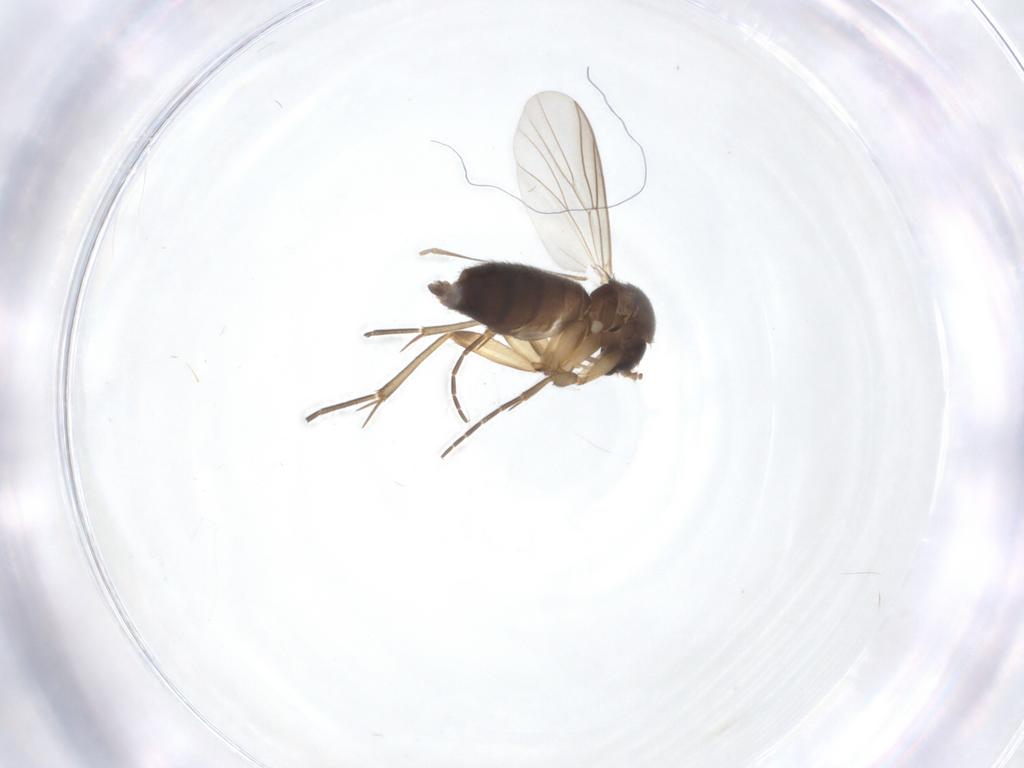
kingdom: Animalia
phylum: Arthropoda
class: Insecta
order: Diptera
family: Mycetophilidae
